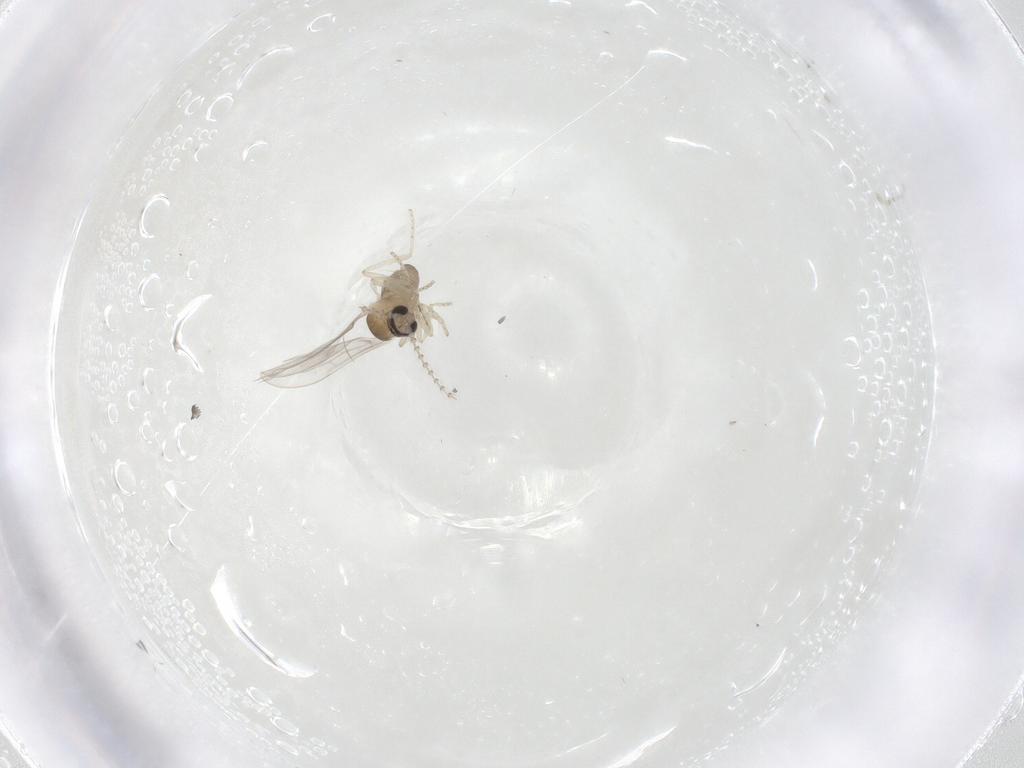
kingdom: Animalia
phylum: Arthropoda
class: Insecta
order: Diptera
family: Cecidomyiidae
